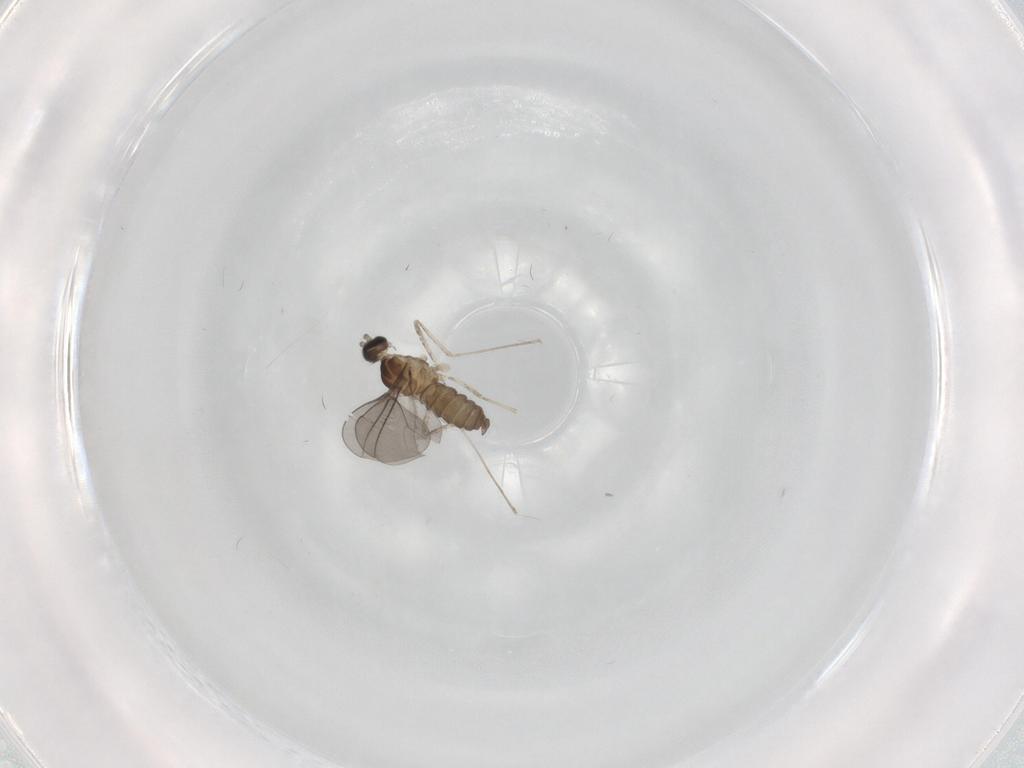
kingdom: Animalia
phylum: Arthropoda
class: Insecta
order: Diptera
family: Cecidomyiidae
